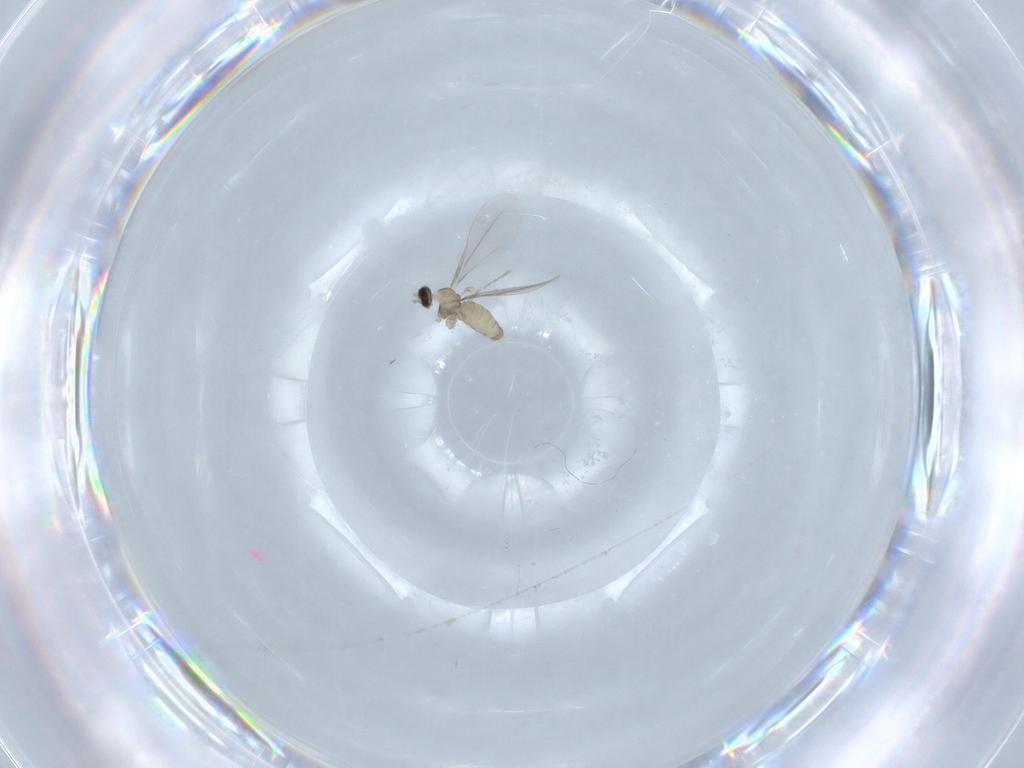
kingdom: Animalia
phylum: Arthropoda
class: Insecta
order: Diptera
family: Cecidomyiidae
